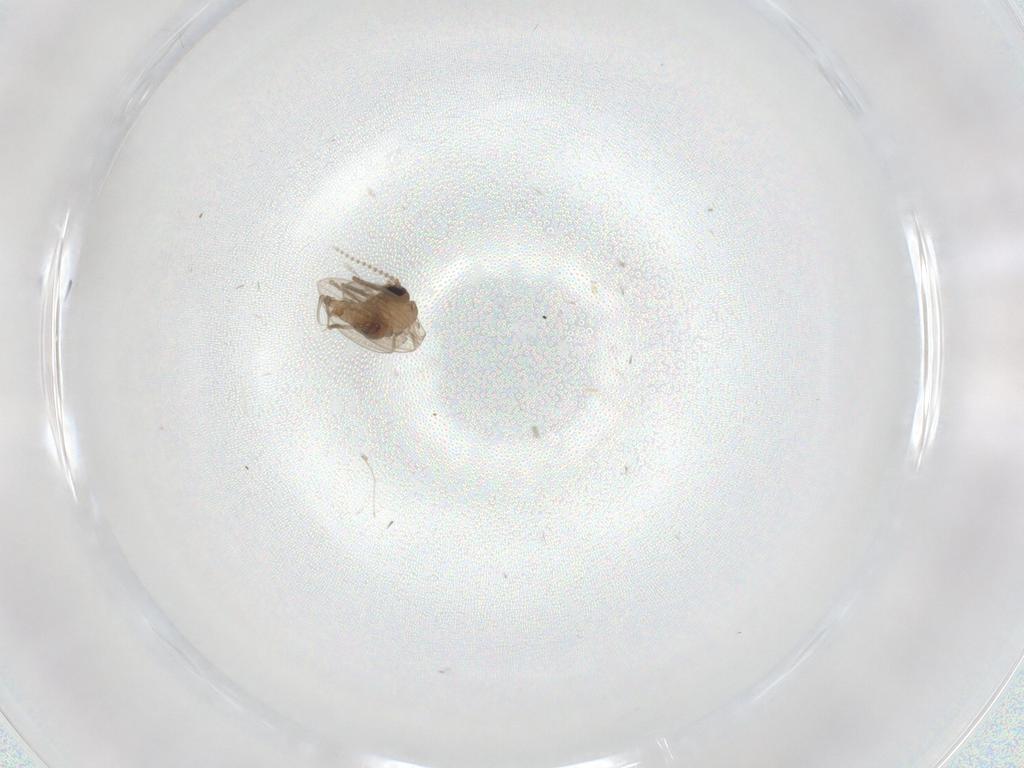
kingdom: Animalia
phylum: Arthropoda
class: Insecta
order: Diptera
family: Psychodidae
